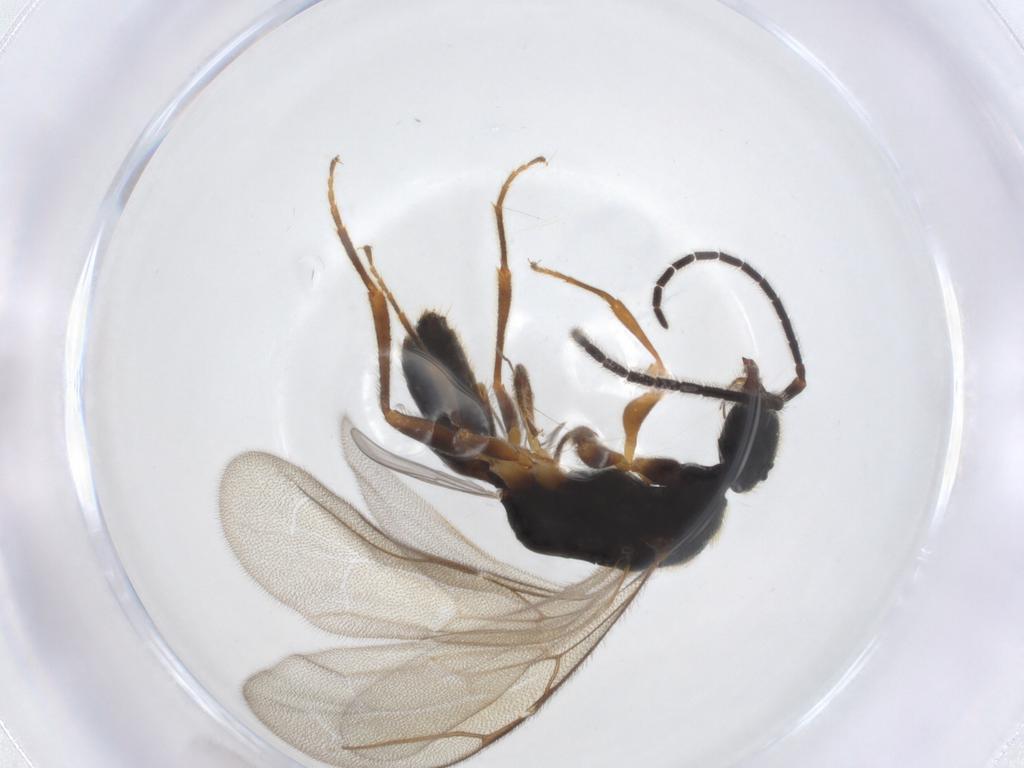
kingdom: Animalia
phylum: Arthropoda
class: Insecta
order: Hymenoptera
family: Bethylidae
